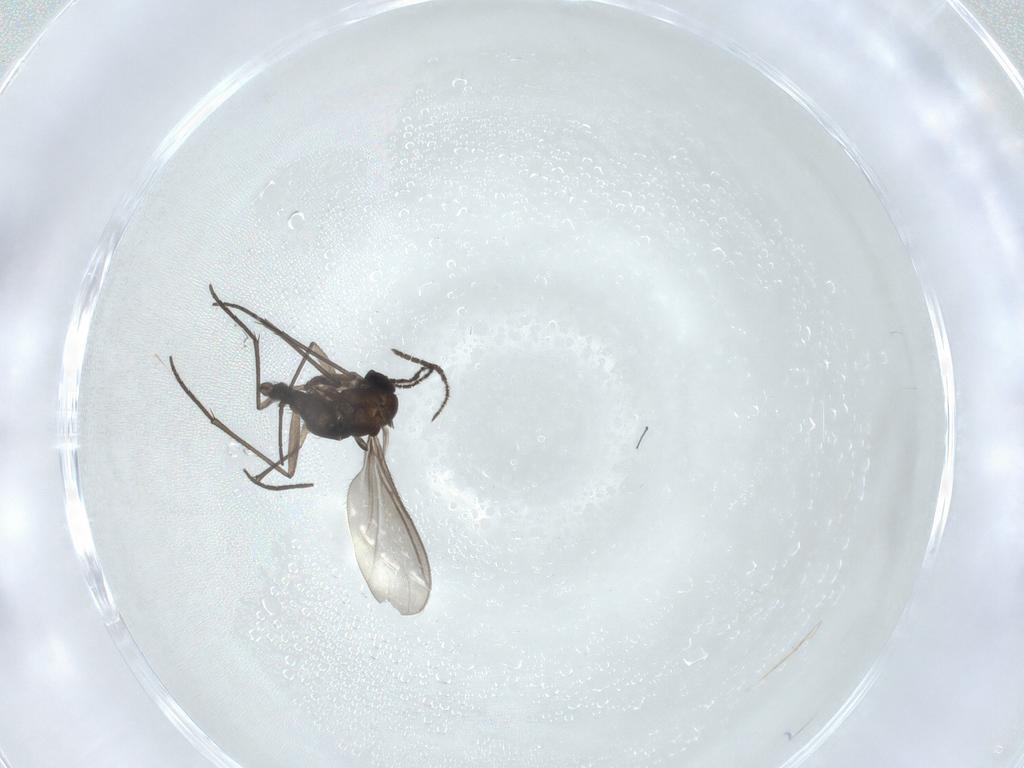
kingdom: Animalia
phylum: Arthropoda
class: Insecta
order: Diptera
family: Sciaridae
